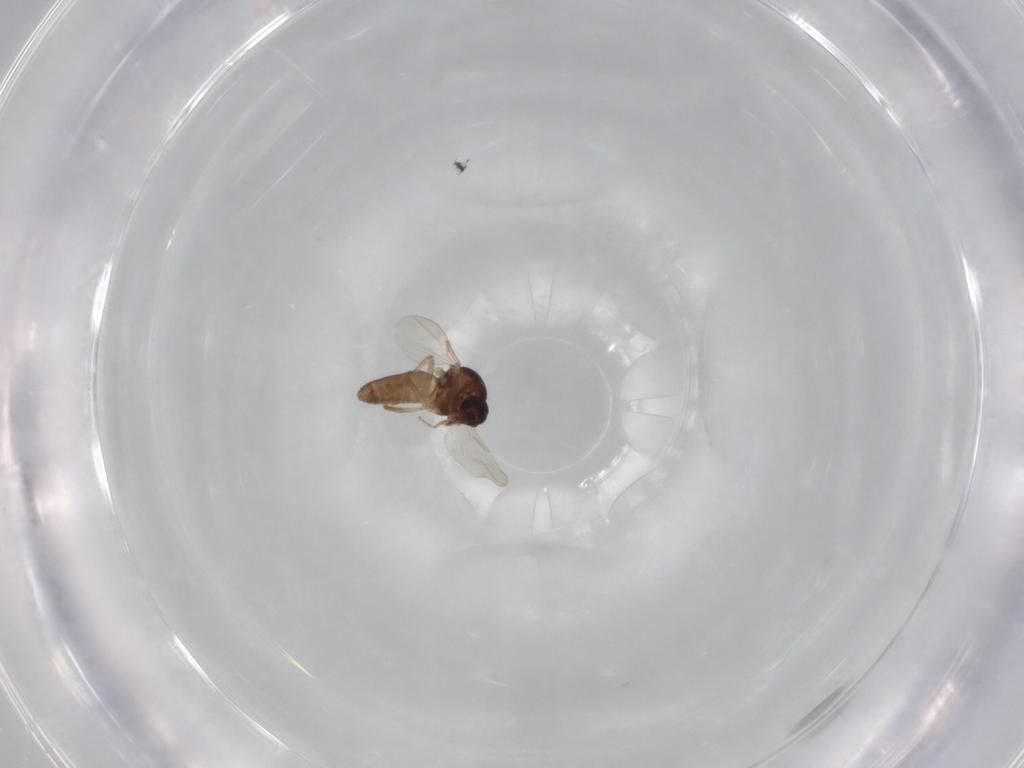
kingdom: Animalia
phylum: Arthropoda
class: Insecta
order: Diptera
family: Ceratopogonidae
